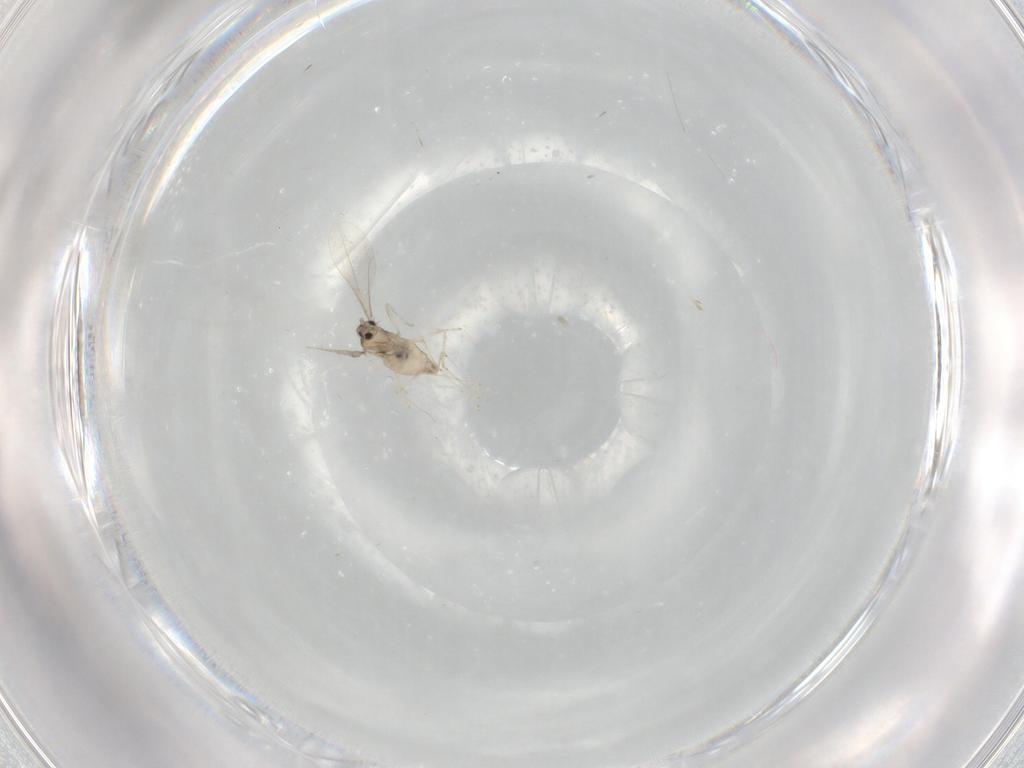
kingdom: Animalia
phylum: Arthropoda
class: Insecta
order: Diptera
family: Cecidomyiidae
